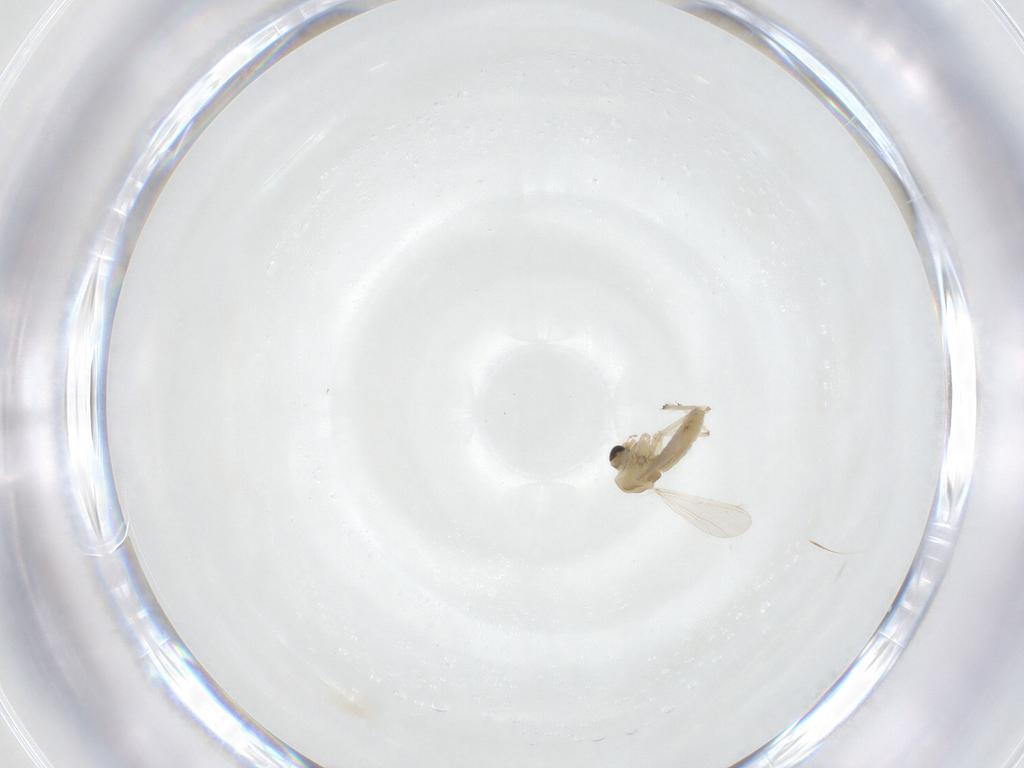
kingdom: Animalia
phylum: Arthropoda
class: Insecta
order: Diptera
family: Chironomidae
